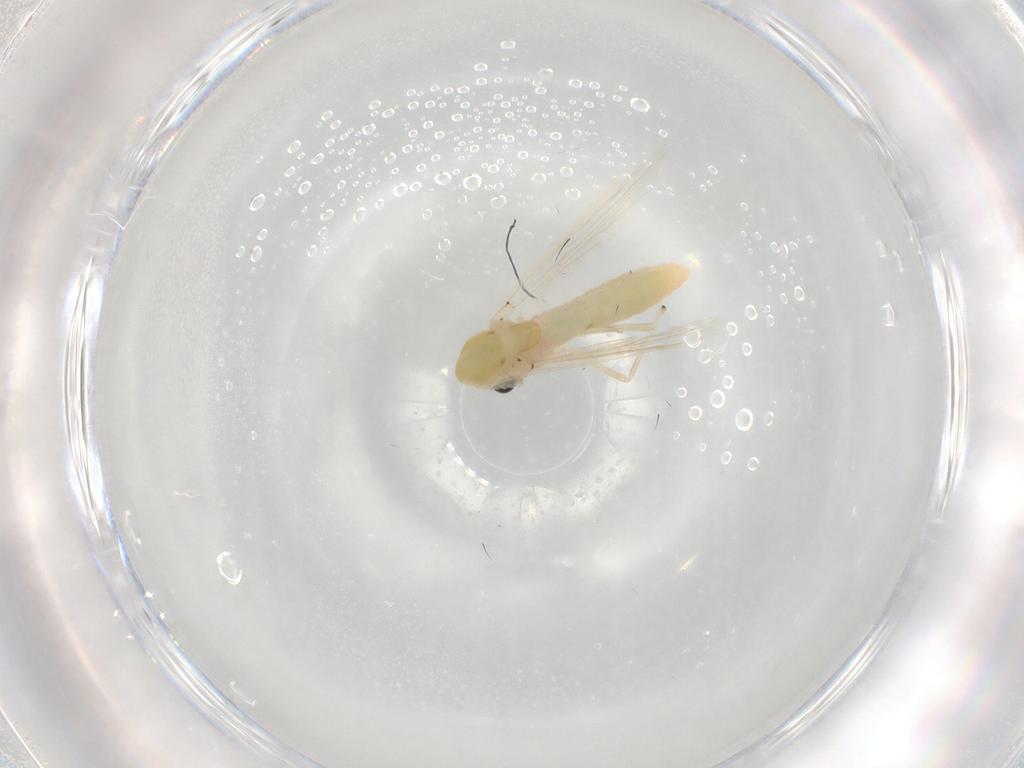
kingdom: Animalia
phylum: Arthropoda
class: Insecta
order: Diptera
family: Chironomidae
